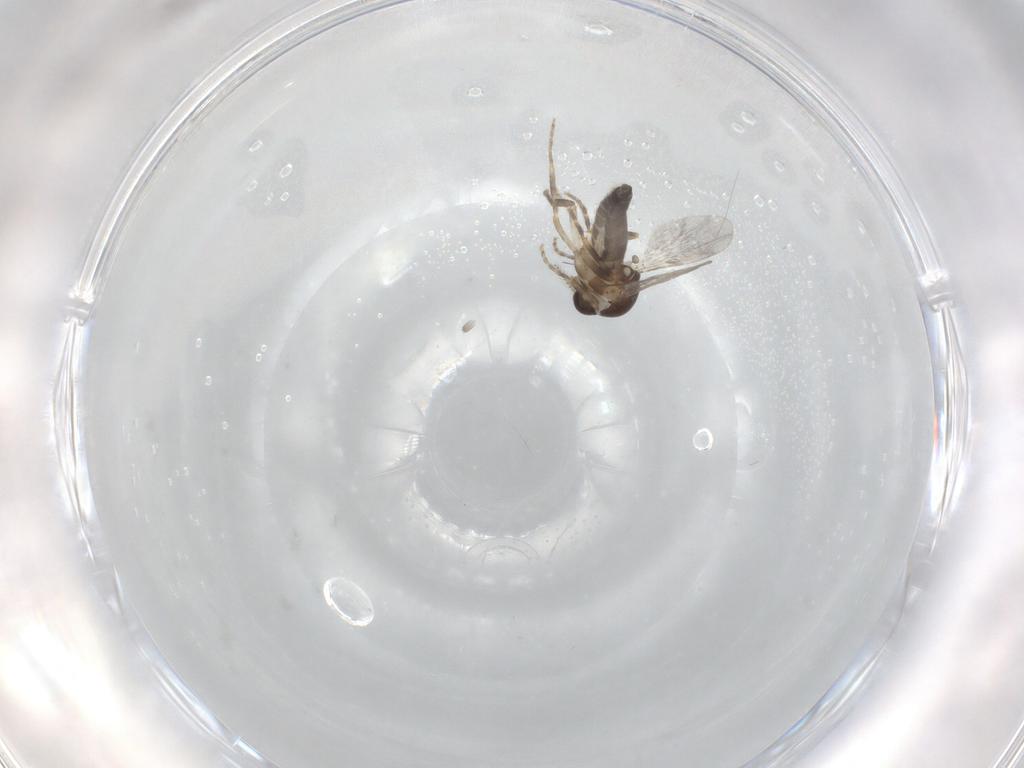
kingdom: Animalia
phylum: Arthropoda
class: Insecta
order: Diptera
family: Ceratopogonidae
